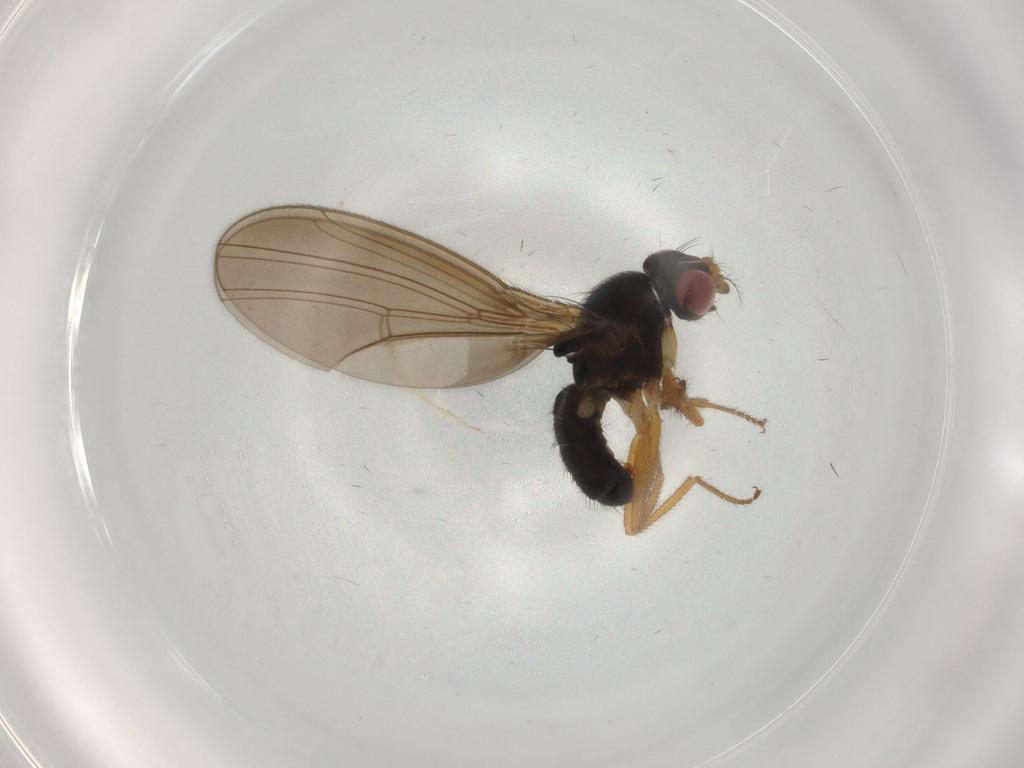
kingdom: Animalia
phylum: Arthropoda
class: Insecta
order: Diptera
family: Drosophilidae
